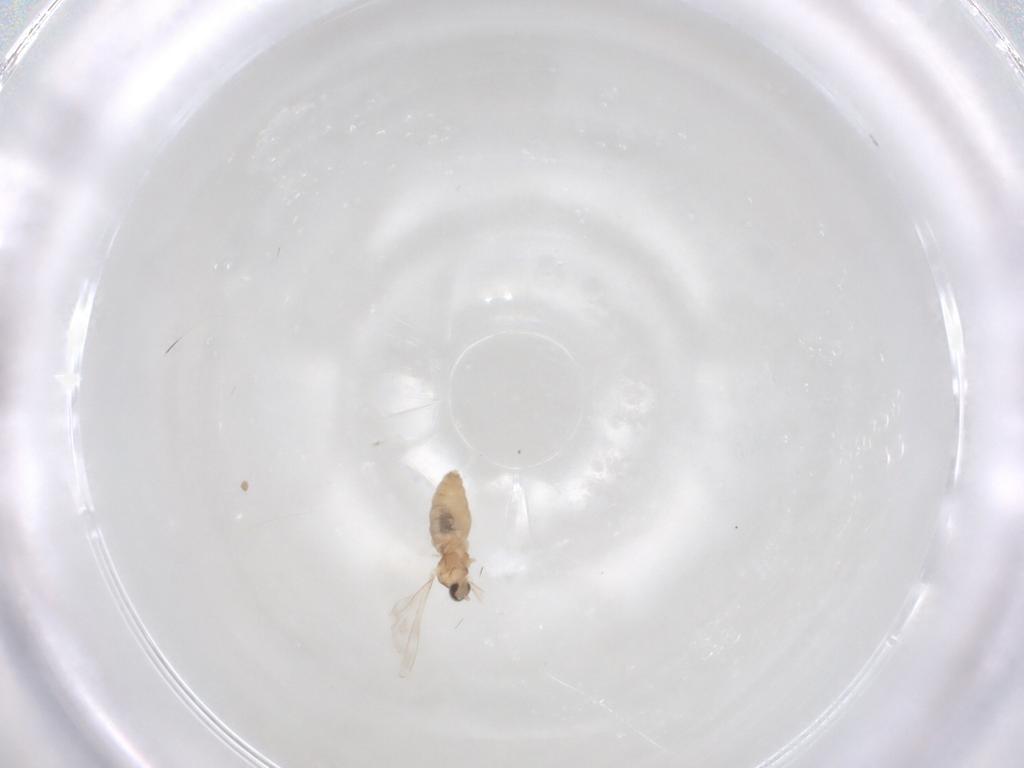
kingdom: Animalia
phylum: Arthropoda
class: Insecta
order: Diptera
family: Cecidomyiidae
